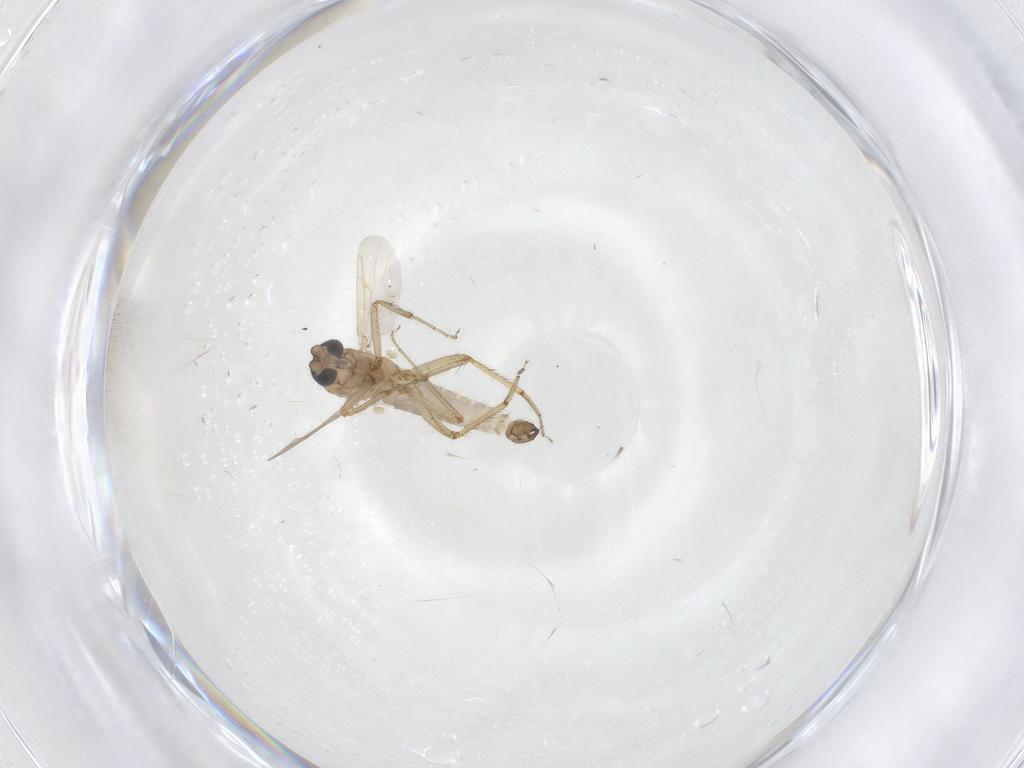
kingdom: Animalia
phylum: Arthropoda
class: Insecta
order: Diptera
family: Ceratopogonidae
